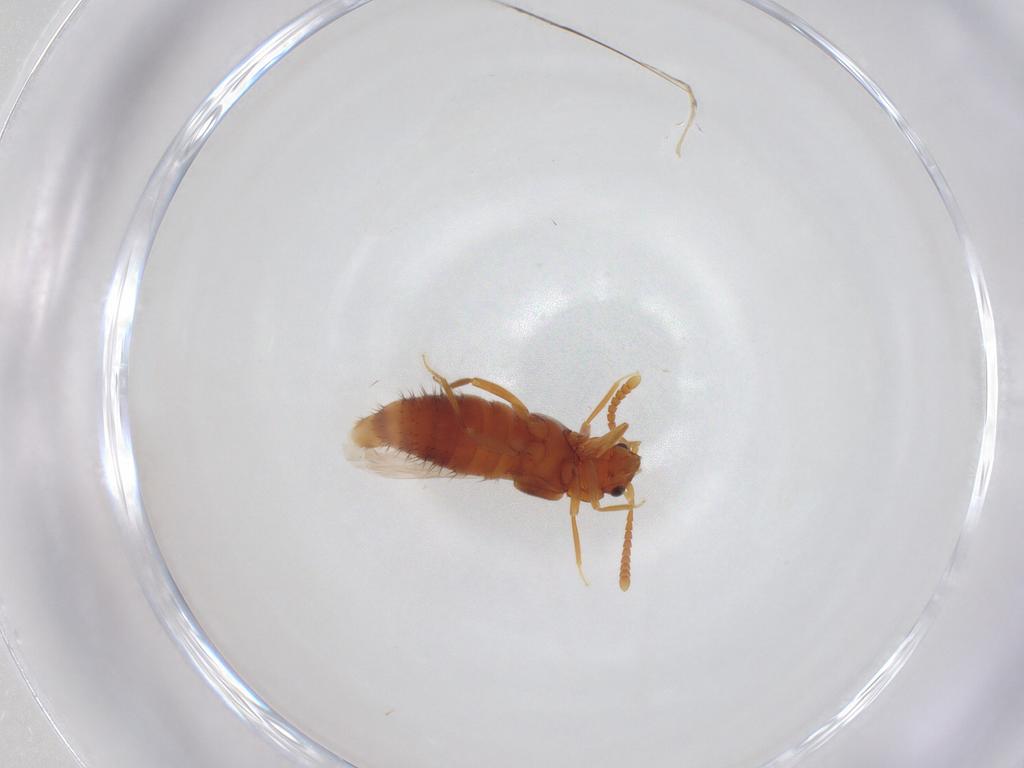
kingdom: Animalia
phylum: Arthropoda
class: Insecta
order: Coleoptera
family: Staphylinidae
